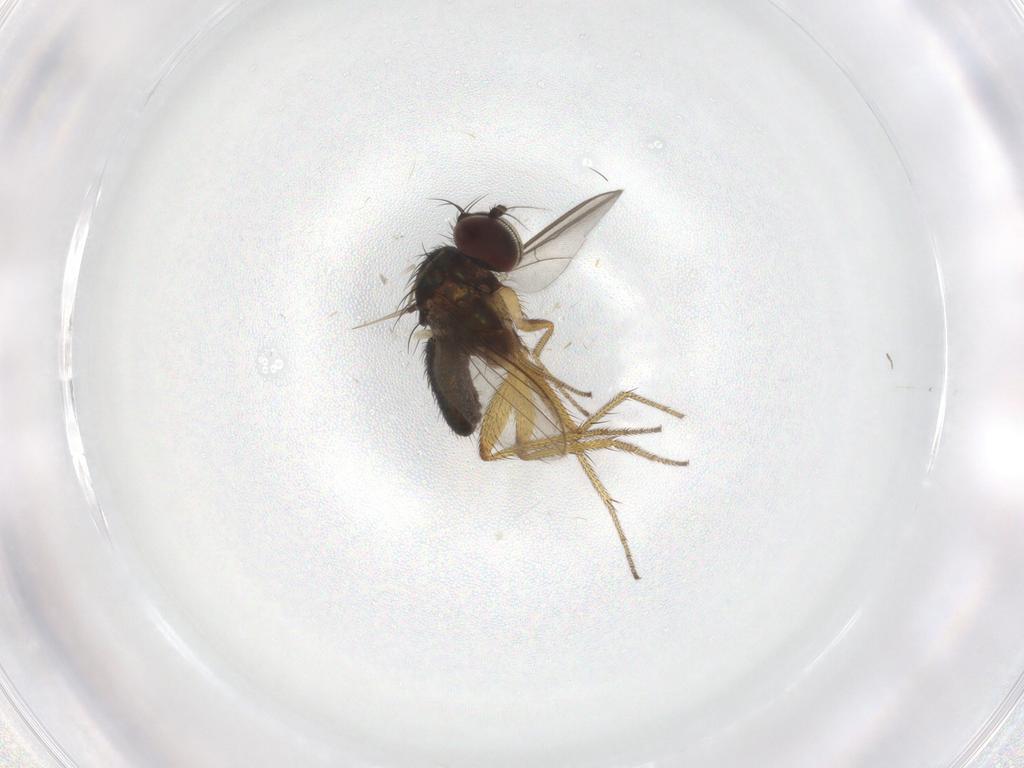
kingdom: Animalia
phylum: Arthropoda
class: Insecta
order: Diptera
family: Dolichopodidae
